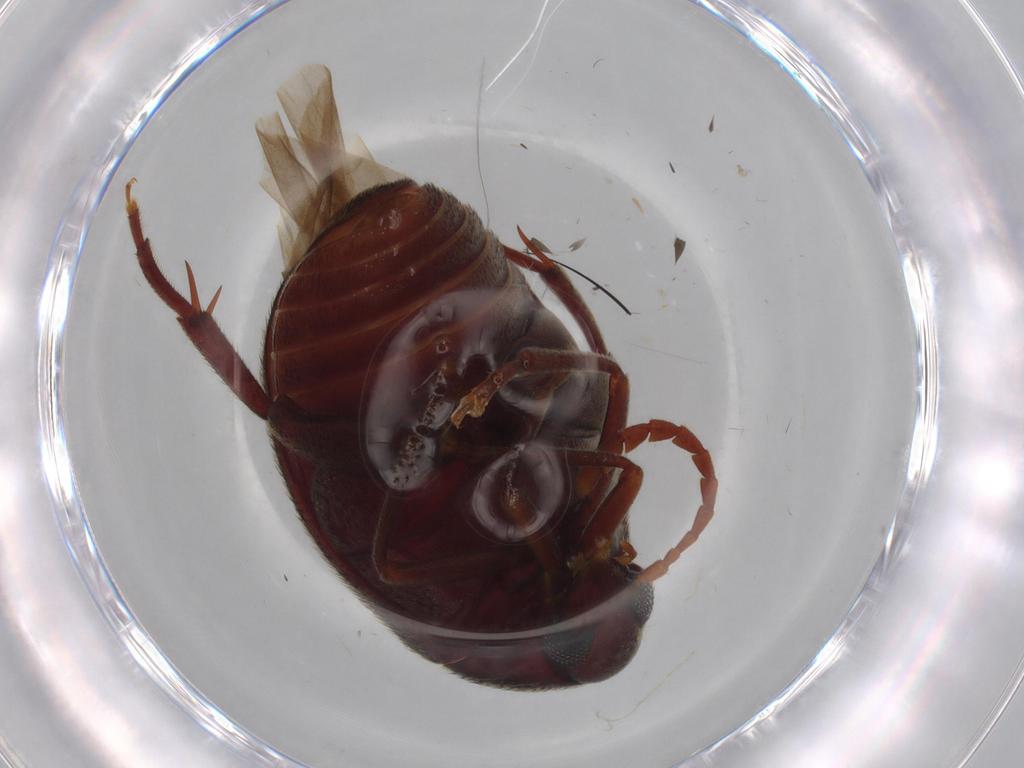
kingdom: Animalia
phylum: Arthropoda
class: Insecta
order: Coleoptera
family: Chrysomelidae
